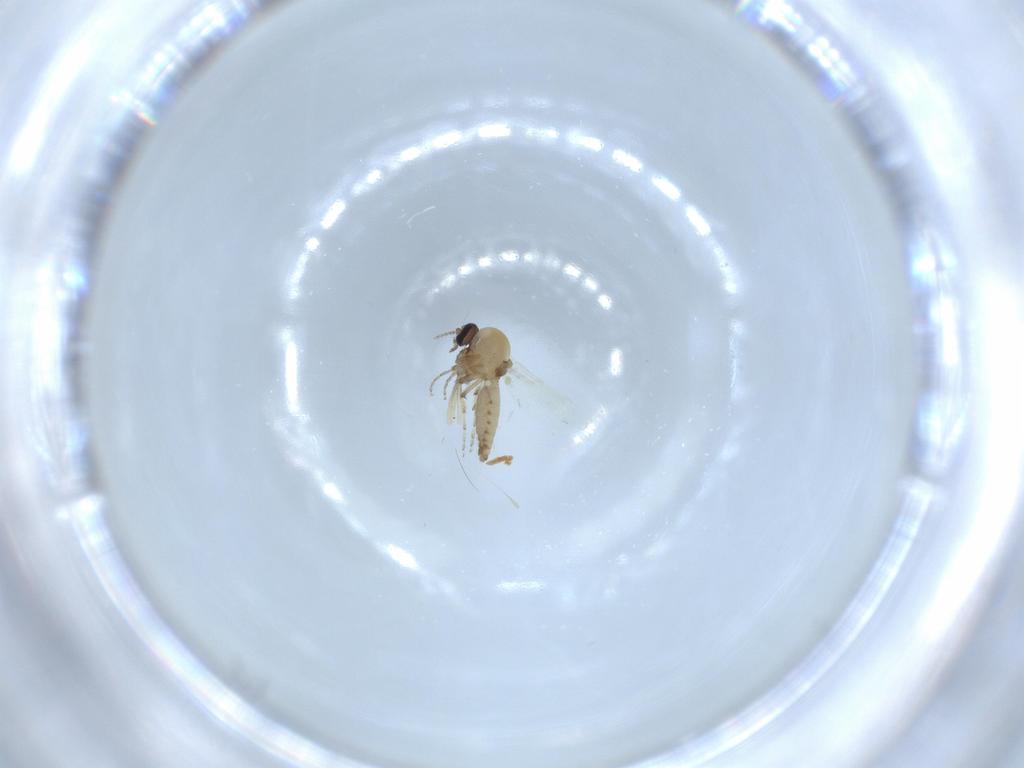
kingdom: Animalia
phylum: Arthropoda
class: Insecta
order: Diptera
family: Ceratopogonidae
